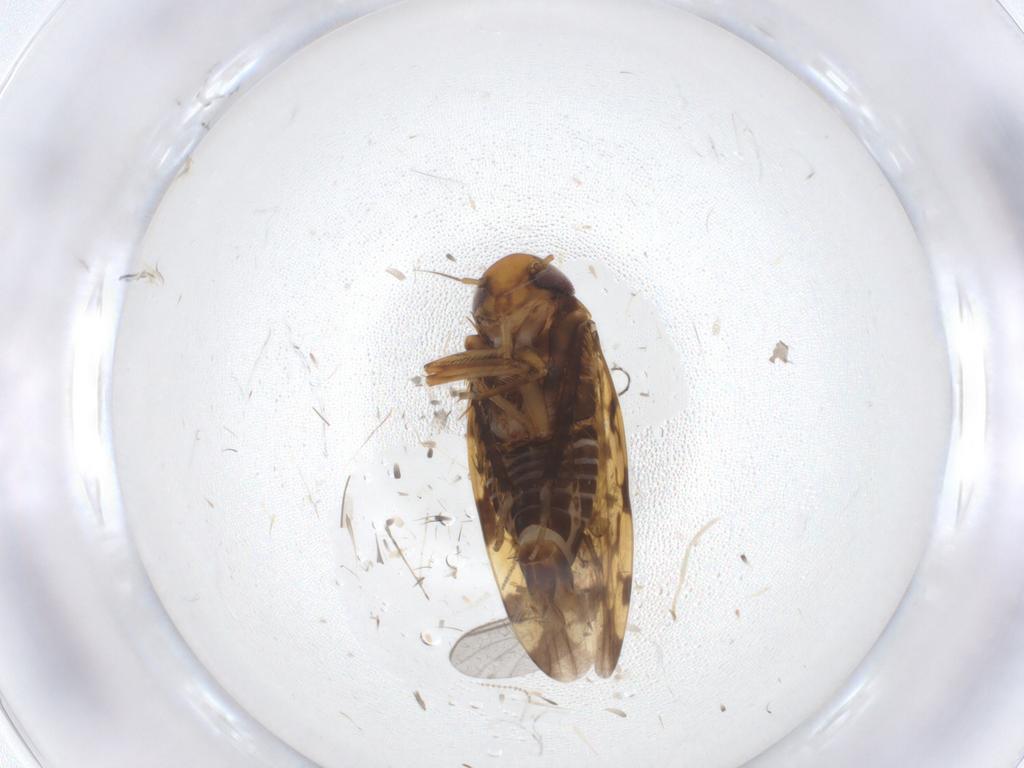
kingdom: Animalia
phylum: Arthropoda
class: Insecta
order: Hemiptera
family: Cicadellidae
